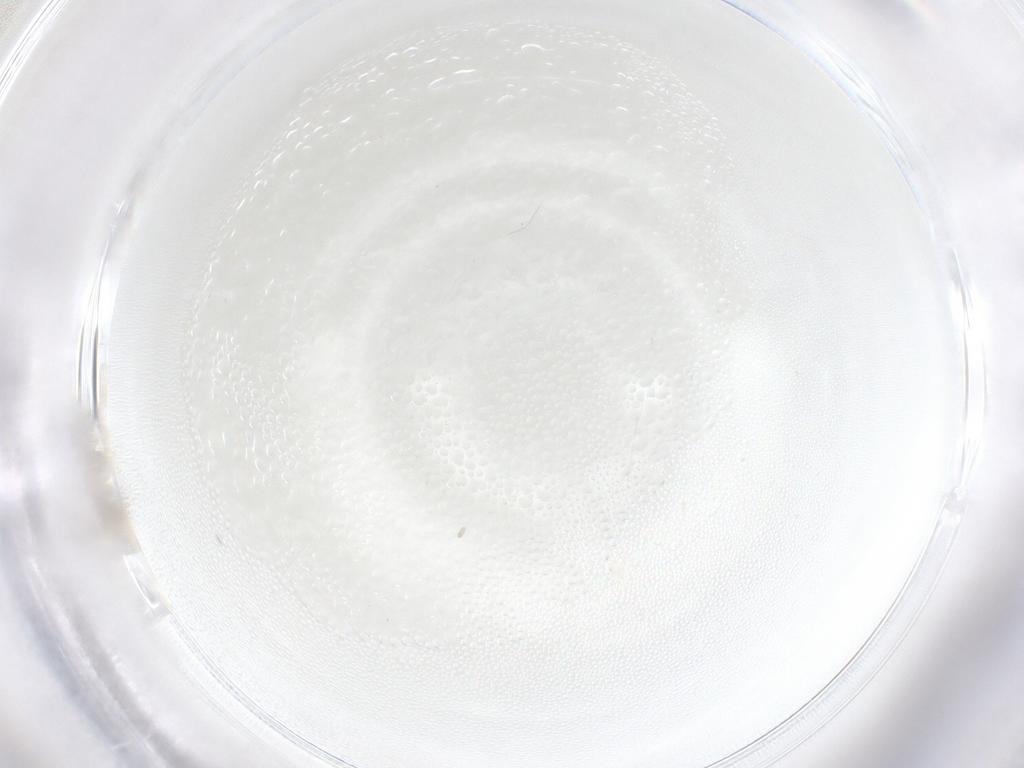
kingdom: Animalia
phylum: Arthropoda
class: Insecta
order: Diptera
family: Cecidomyiidae
